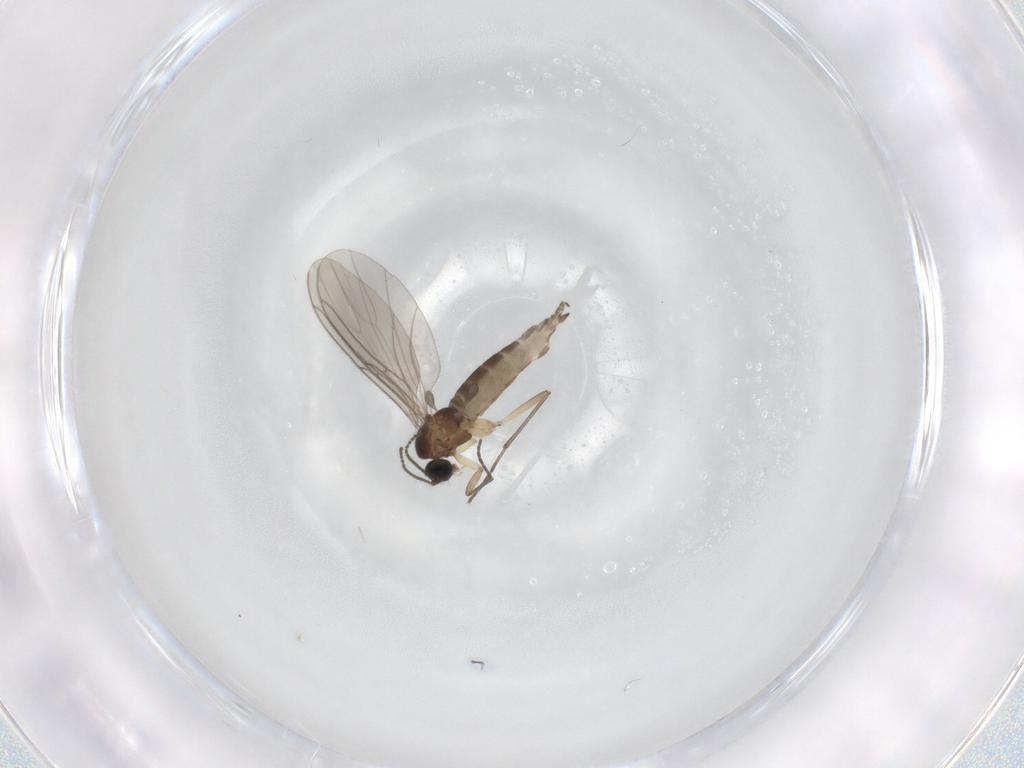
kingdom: Animalia
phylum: Arthropoda
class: Insecta
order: Diptera
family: Sciaridae
